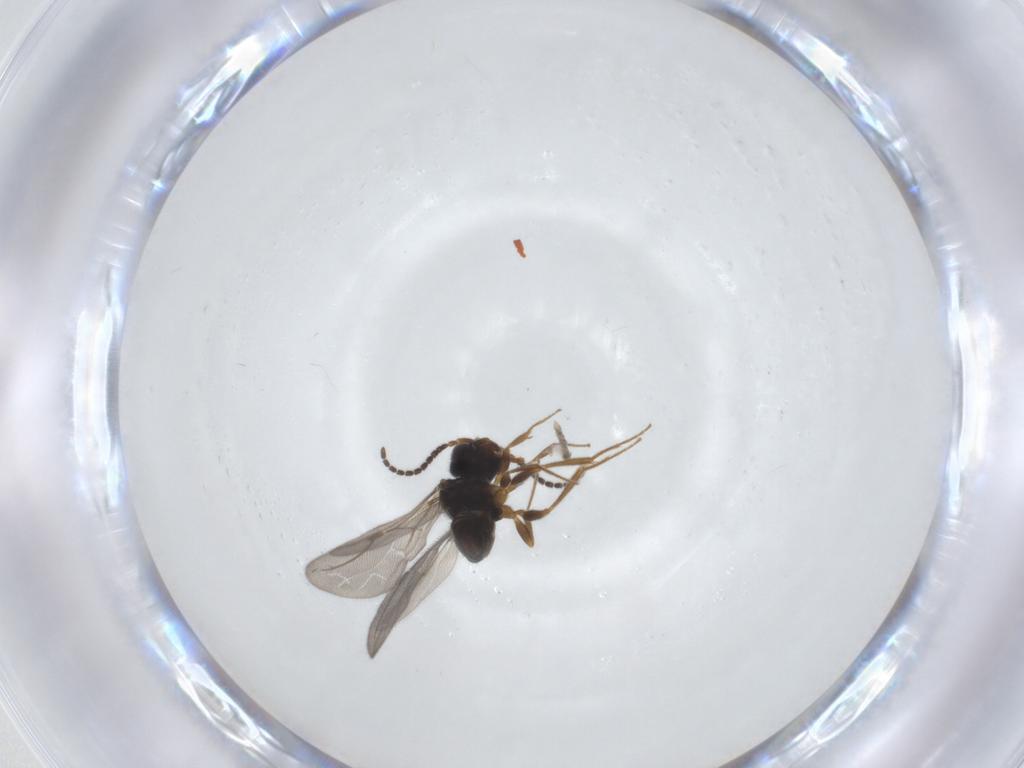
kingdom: Animalia
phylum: Arthropoda
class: Insecta
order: Hymenoptera
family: Bethylidae
